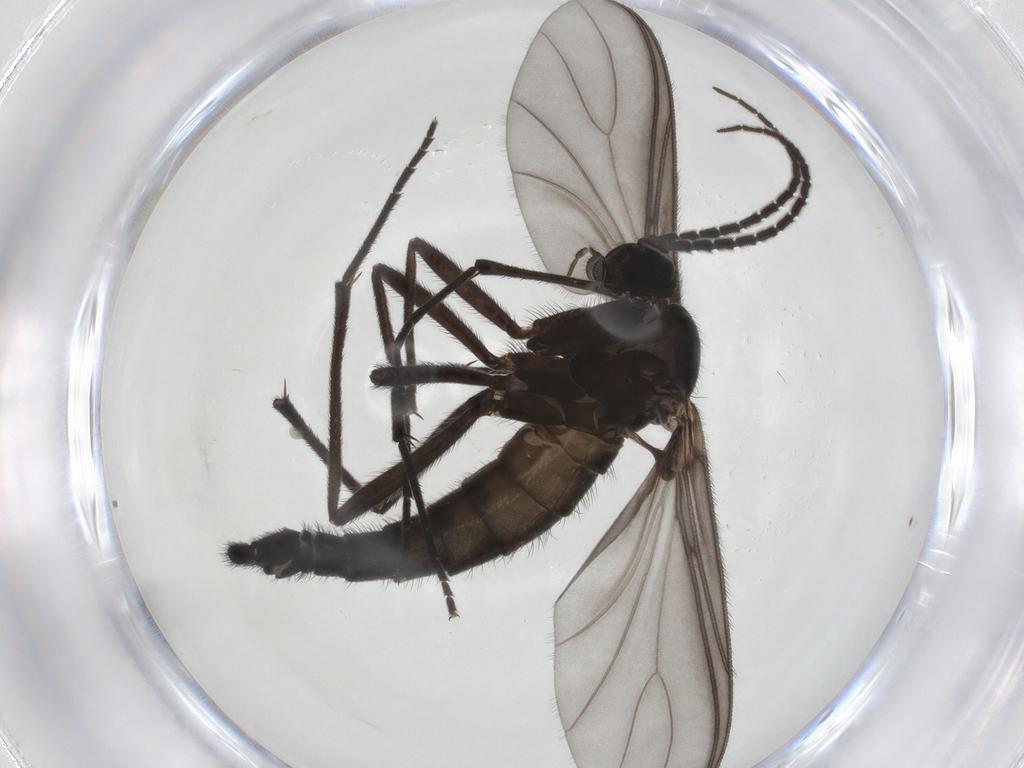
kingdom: Animalia
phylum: Arthropoda
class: Insecta
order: Diptera
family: Sciaridae
